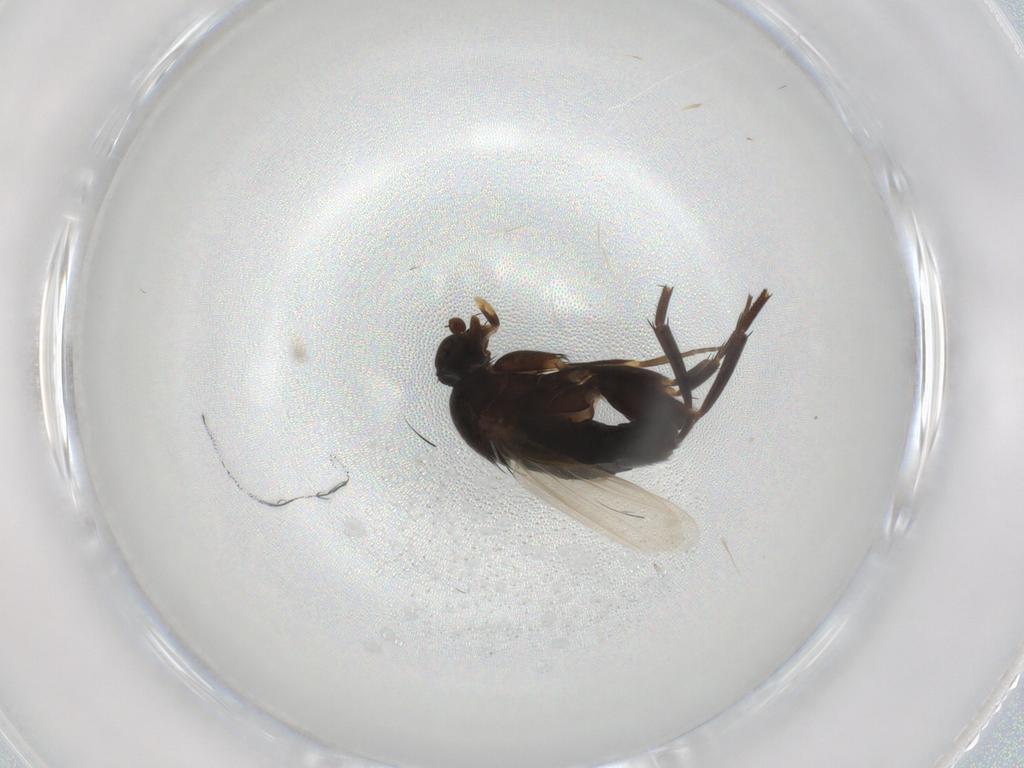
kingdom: Animalia
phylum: Arthropoda
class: Insecta
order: Diptera
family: Phoridae
